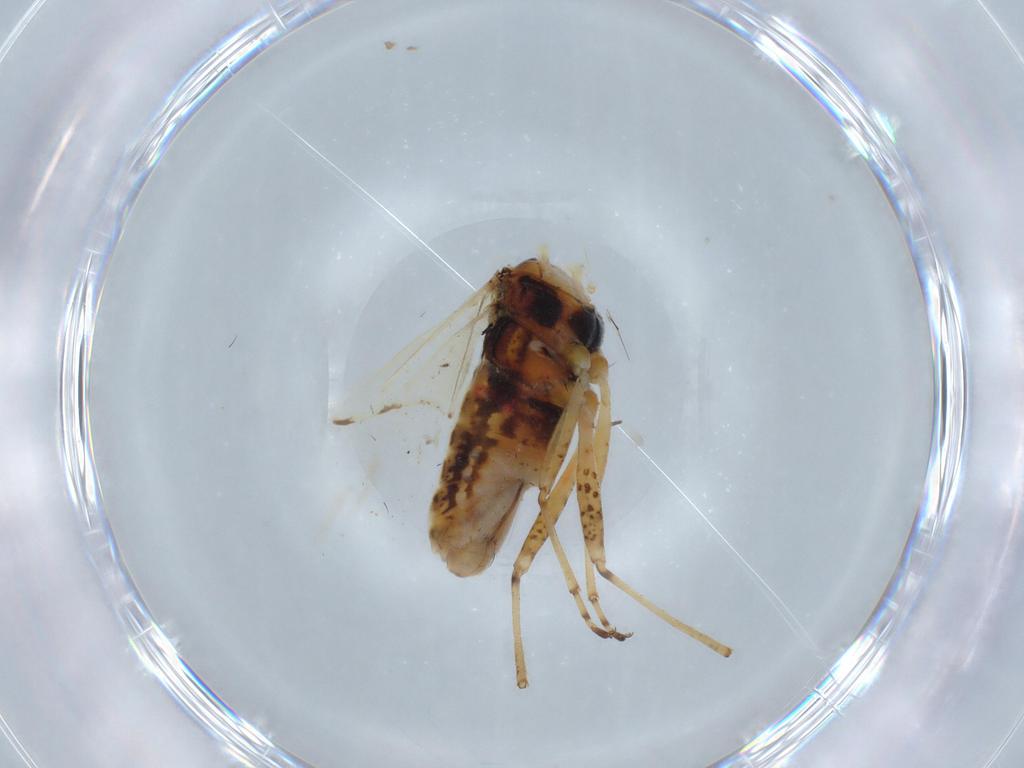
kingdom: Animalia
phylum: Arthropoda
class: Insecta
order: Hemiptera
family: Lygaeidae
